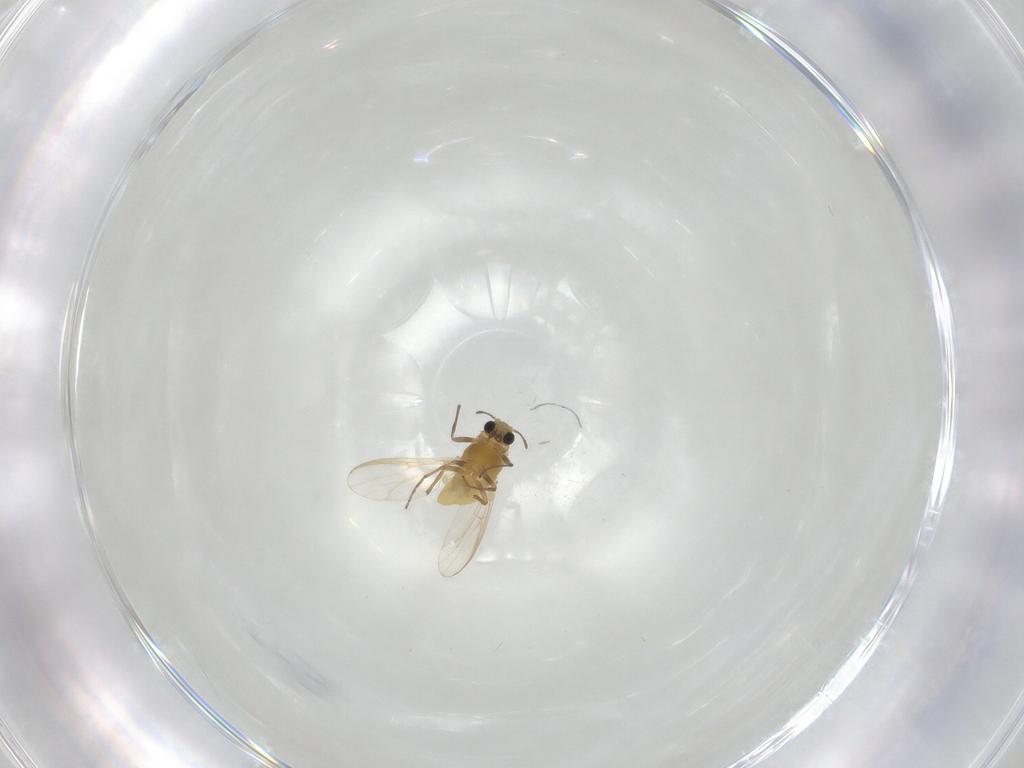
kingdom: Animalia
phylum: Arthropoda
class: Insecta
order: Diptera
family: Chironomidae
